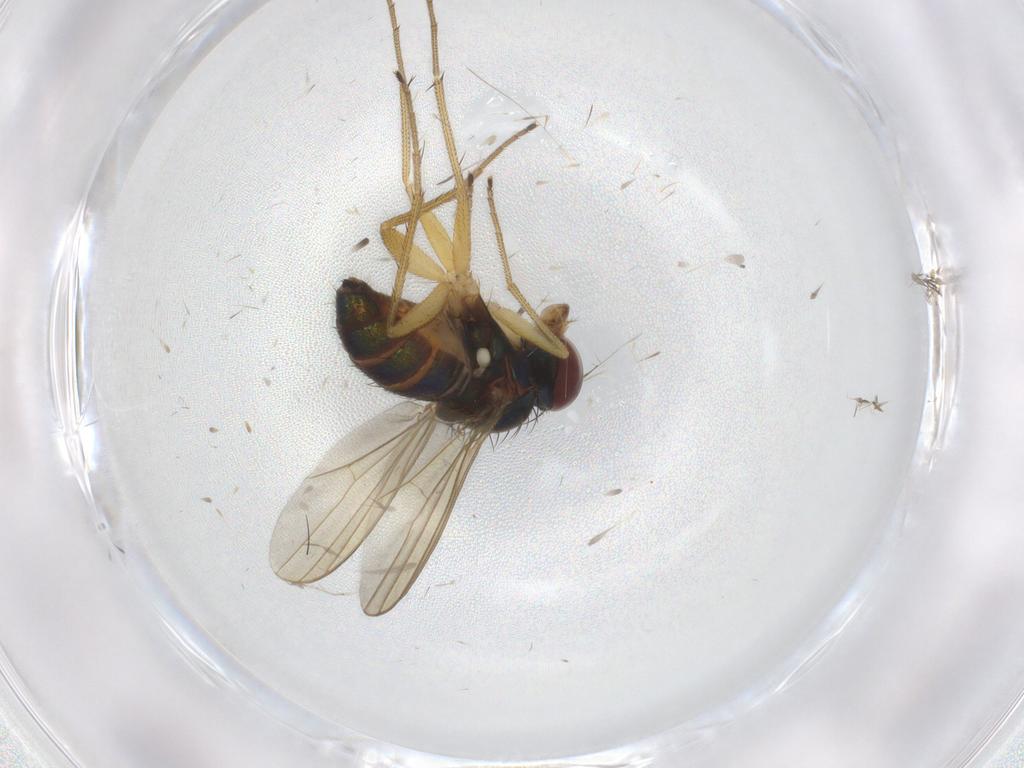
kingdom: Animalia
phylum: Arthropoda
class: Insecta
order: Diptera
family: Dolichopodidae
